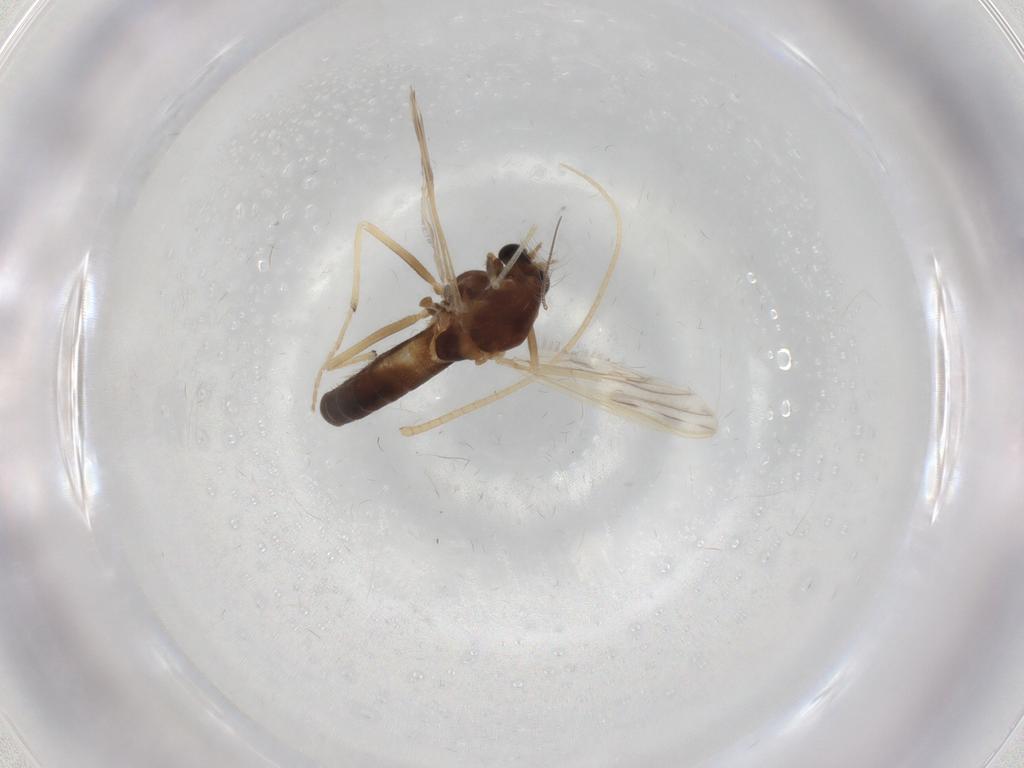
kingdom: Animalia
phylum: Arthropoda
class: Insecta
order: Diptera
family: Chironomidae
